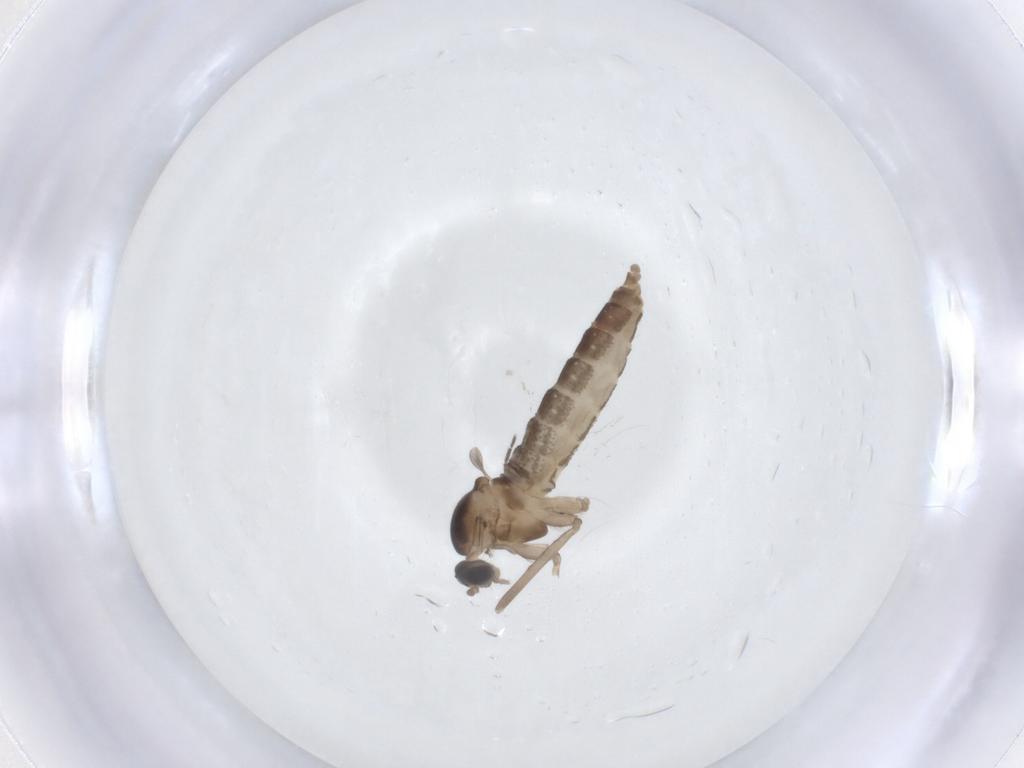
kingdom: Animalia
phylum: Arthropoda
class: Insecta
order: Diptera
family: Cecidomyiidae
